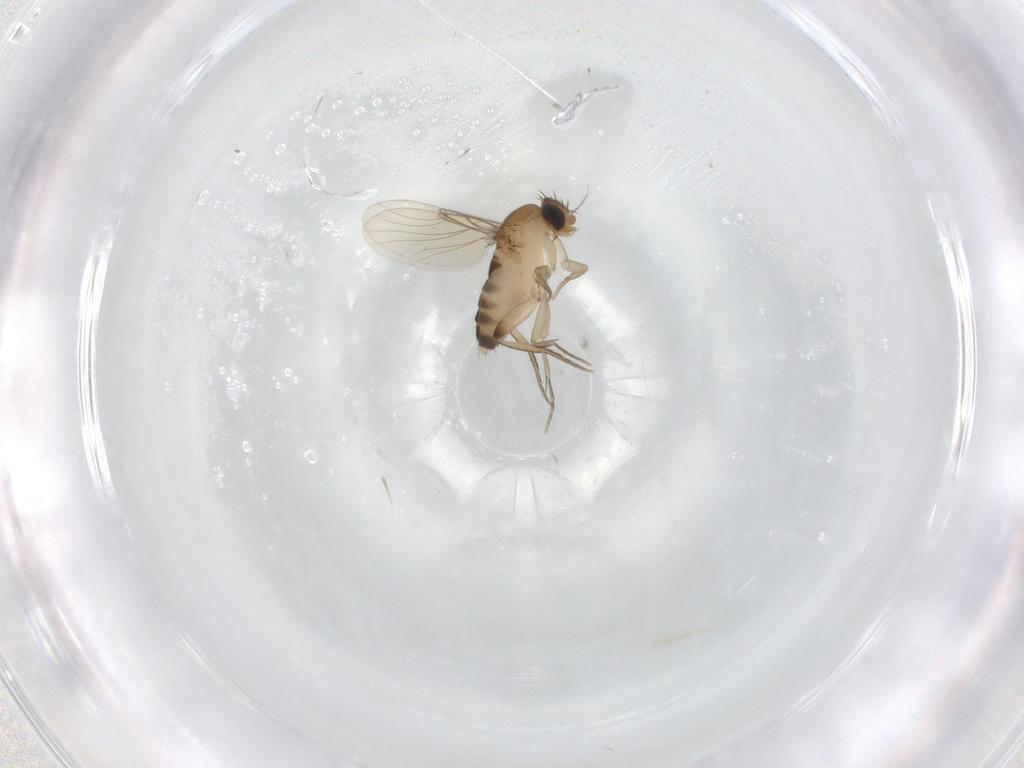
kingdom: Animalia
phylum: Arthropoda
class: Insecta
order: Diptera
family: Phoridae
